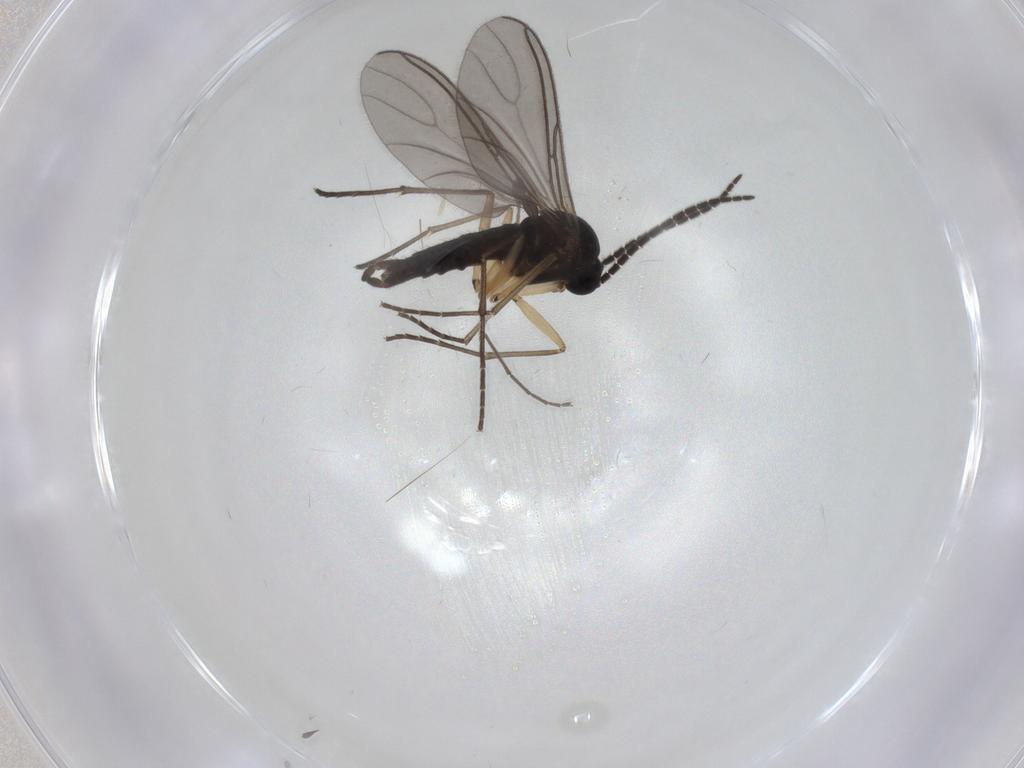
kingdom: Animalia
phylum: Arthropoda
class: Insecta
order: Diptera
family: Sciaridae
